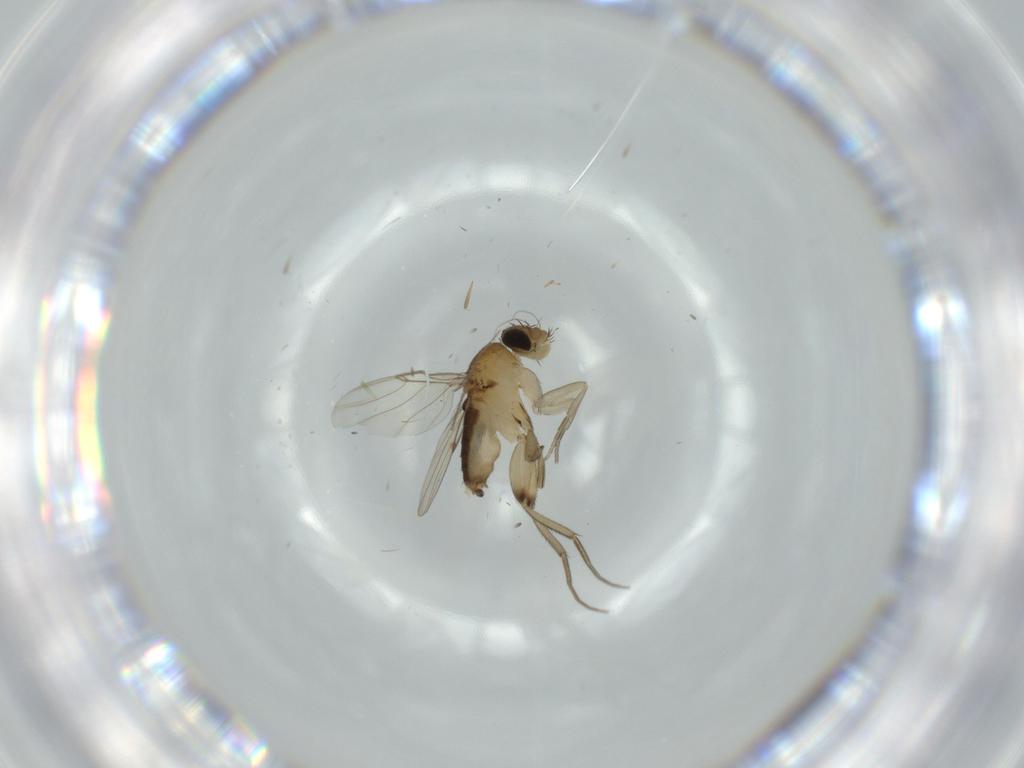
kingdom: Animalia
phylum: Arthropoda
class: Insecta
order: Diptera
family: Phoridae
